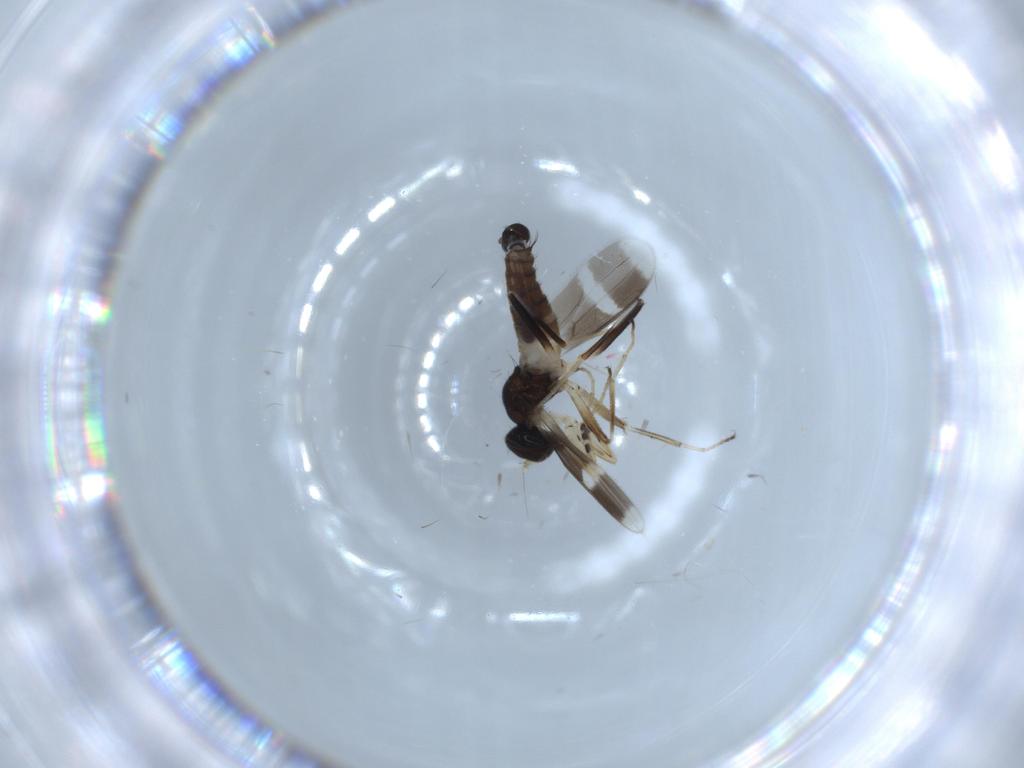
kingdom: Animalia
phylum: Arthropoda
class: Insecta
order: Diptera
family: Hybotidae
